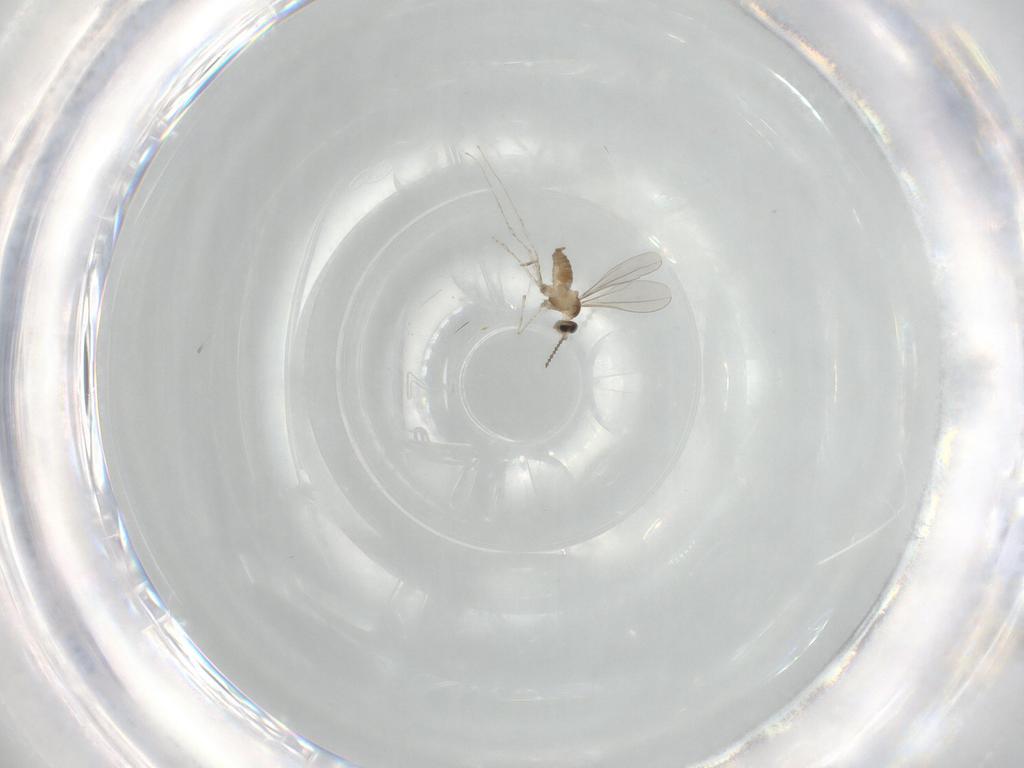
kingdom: Animalia
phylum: Arthropoda
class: Insecta
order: Diptera
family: Cecidomyiidae
